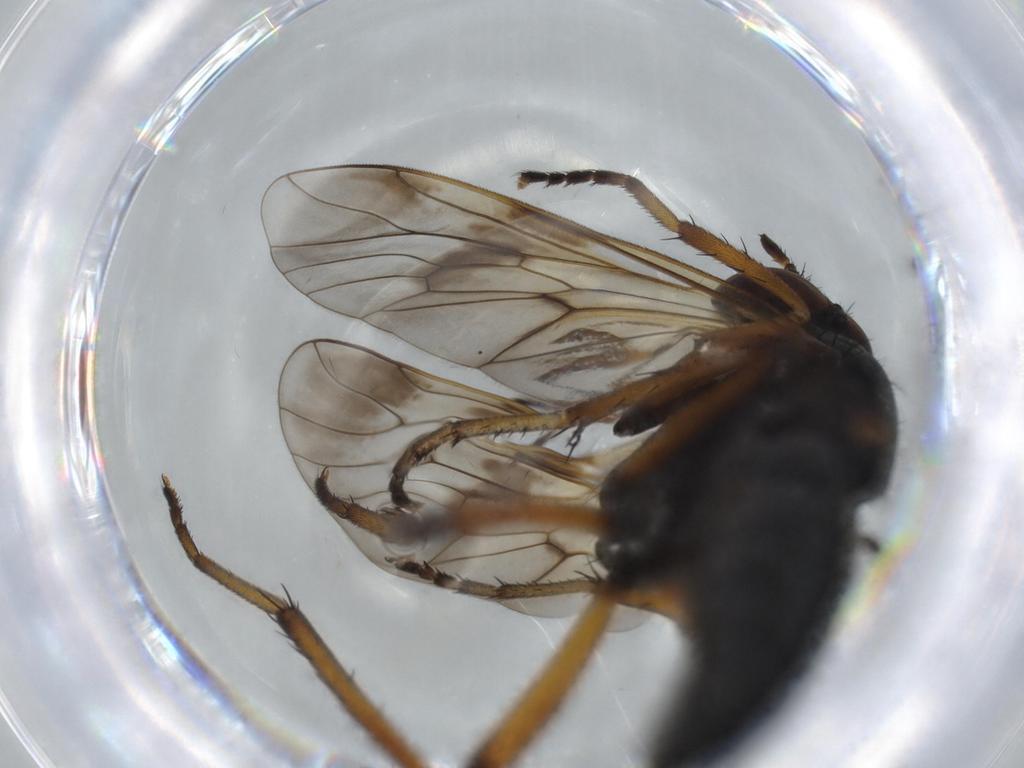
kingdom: Animalia
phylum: Arthropoda
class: Insecta
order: Diptera
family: Therevidae
